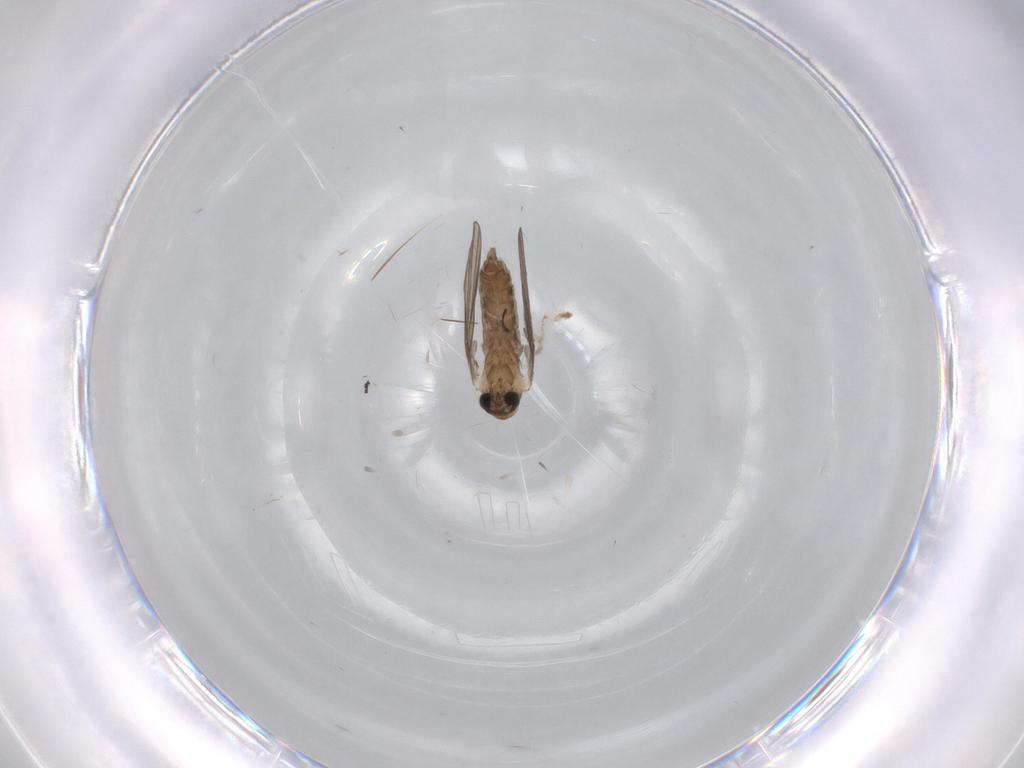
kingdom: Animalia
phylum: Arthropoda
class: Insecta
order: Diptera
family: Limoniidae
